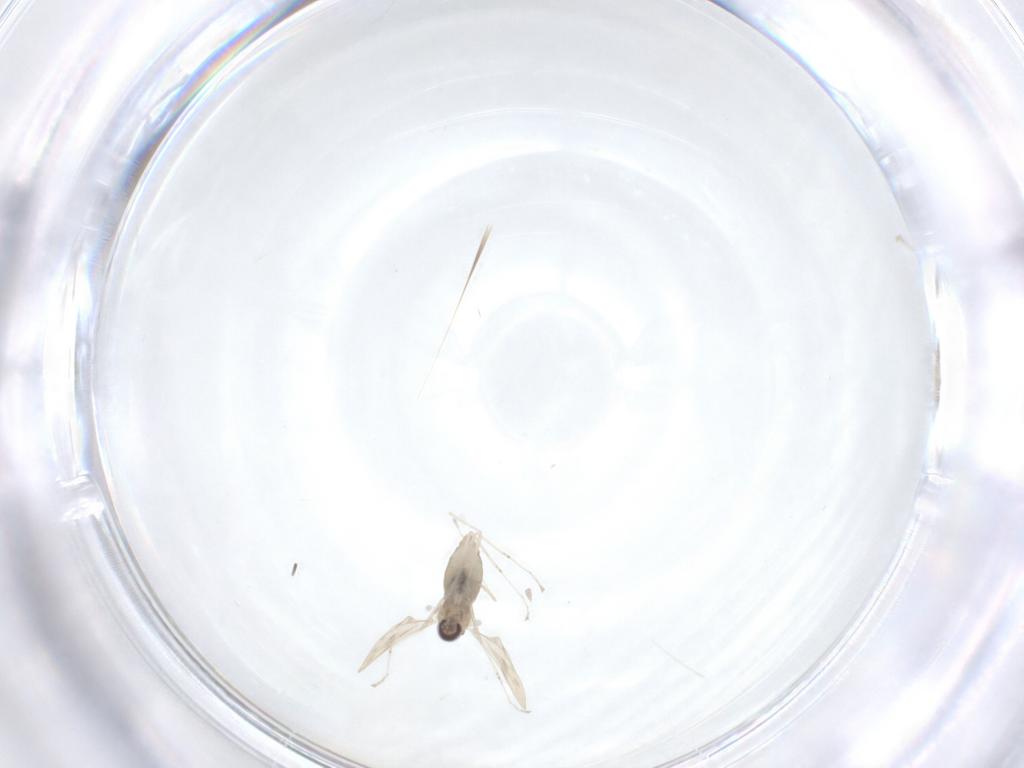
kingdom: Animalia
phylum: Arthropoda
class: Insecta
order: Diptera
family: Cecidomyiidae
